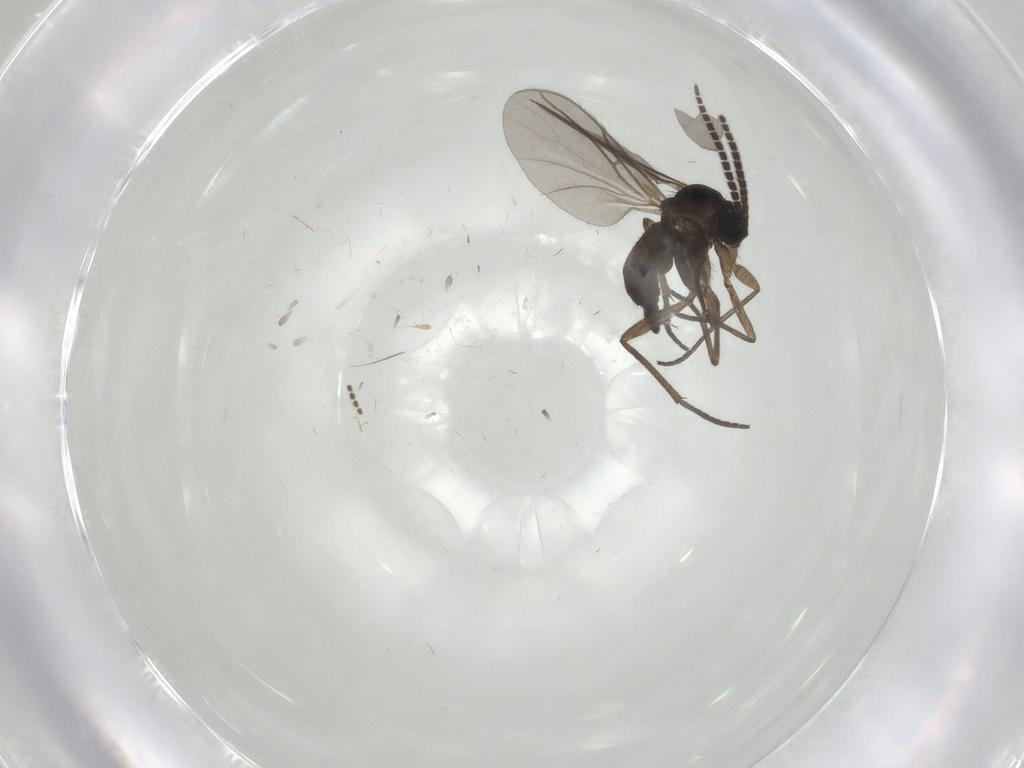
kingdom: Animalia
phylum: Arthropoda
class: Insecta
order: Diptera
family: Sciaridae
